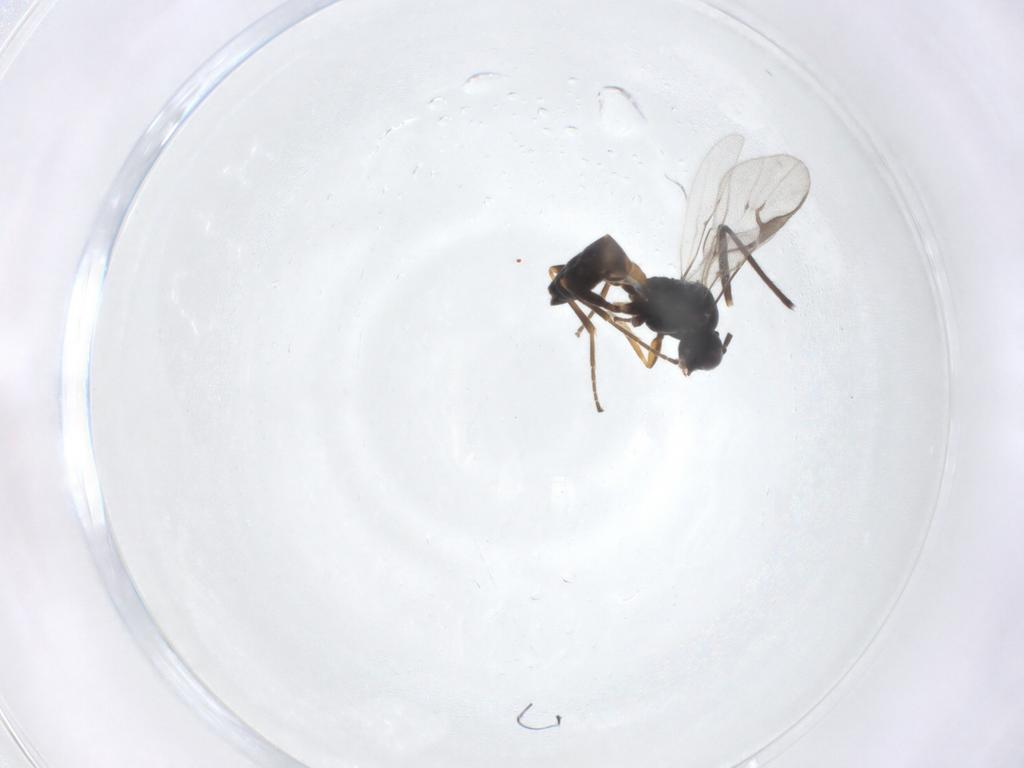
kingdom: Animalia
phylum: Arthropoda
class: Insecta
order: Hymenoptera
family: Braconidae
